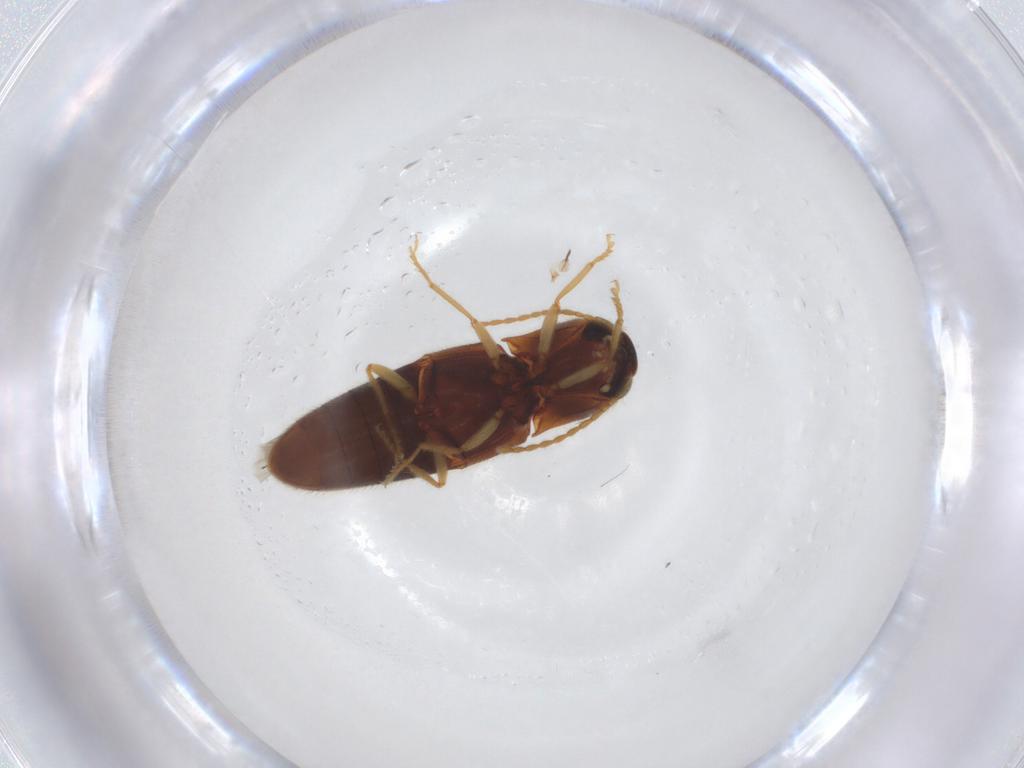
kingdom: Animalia
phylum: Arthropoda
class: Insecta
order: Coleoptera
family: Elateridae
